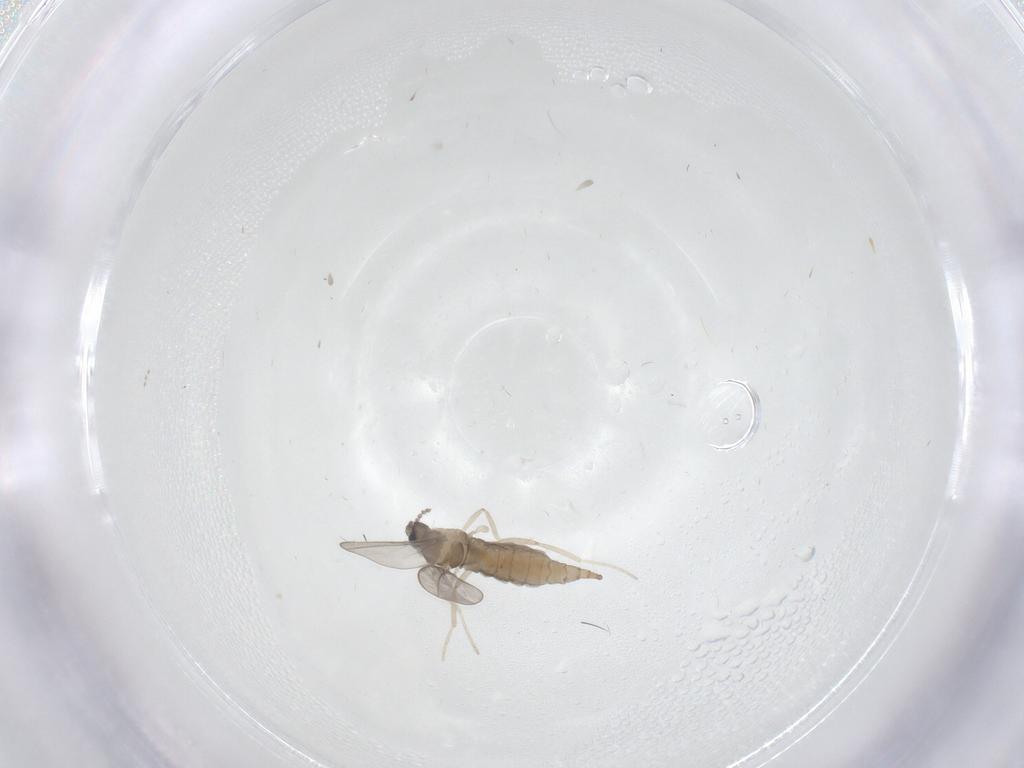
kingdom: Animalia
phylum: Arthropoda
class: Insecta
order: Diptera
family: Cecidomyiidae
